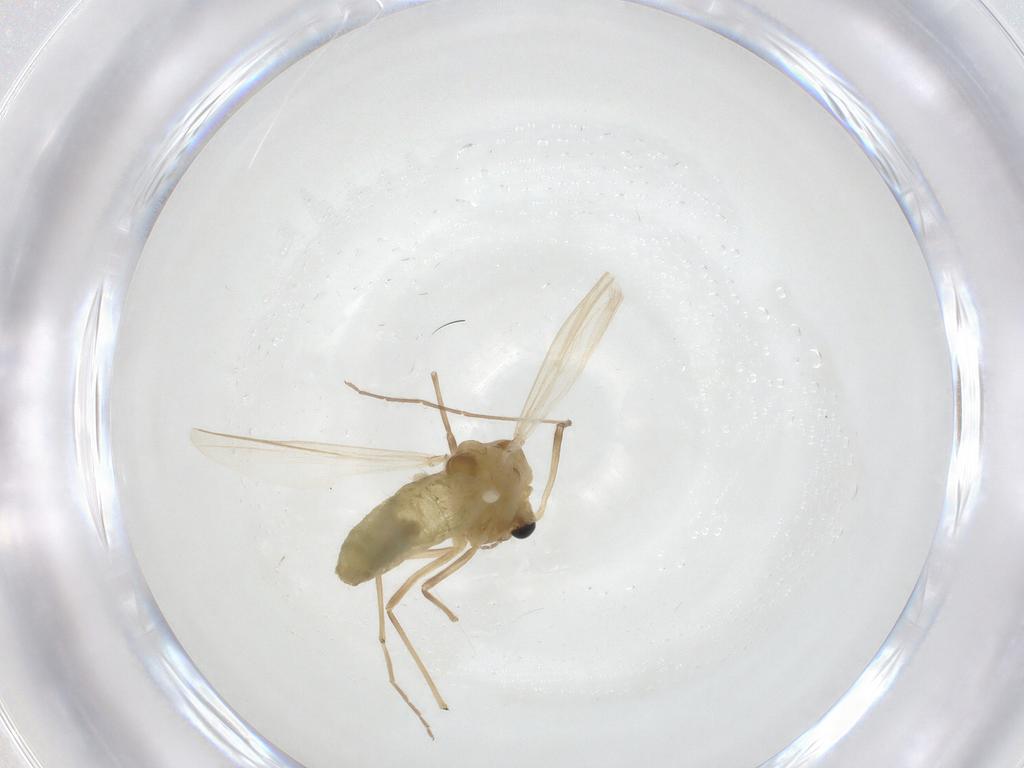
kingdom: Animalia
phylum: Arthropoda
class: Insecta
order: Diptera
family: Chironomidae
